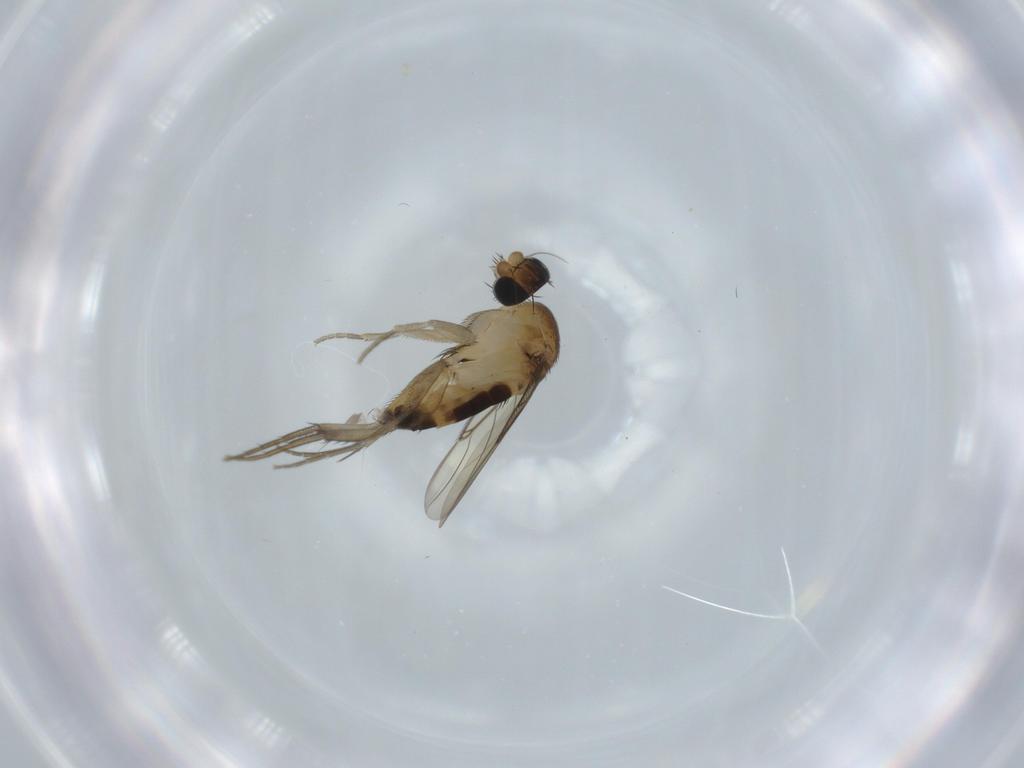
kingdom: Animalia
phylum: Arthropoda
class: Insecta
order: Diptera
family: Phoridae
